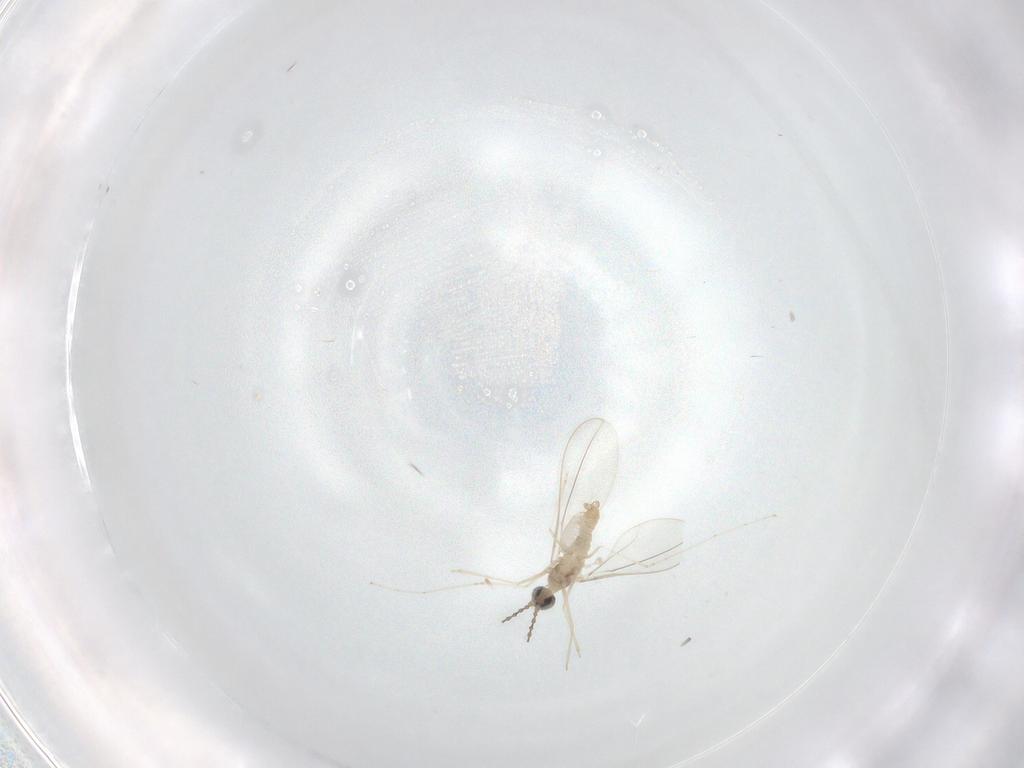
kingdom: Animalia
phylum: Arthropoda
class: Insecta
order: Diptera
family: Cecidomyiidae
